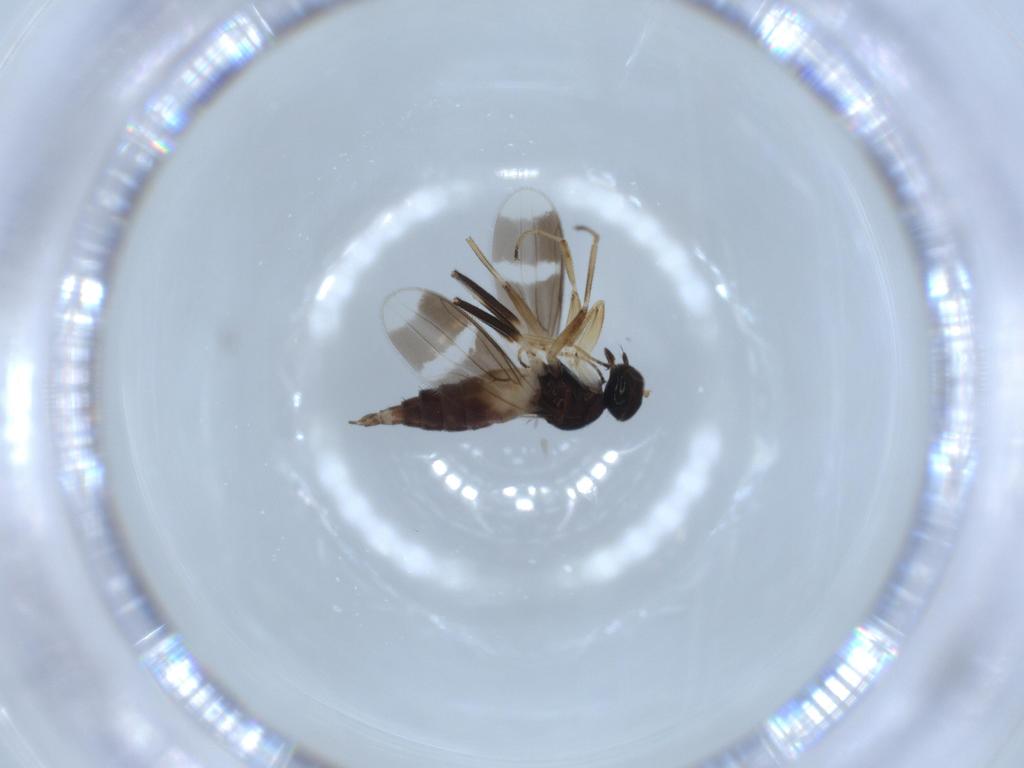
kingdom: Animalia
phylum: Arthropoda
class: Insecta
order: Diptera
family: Hybotidae
